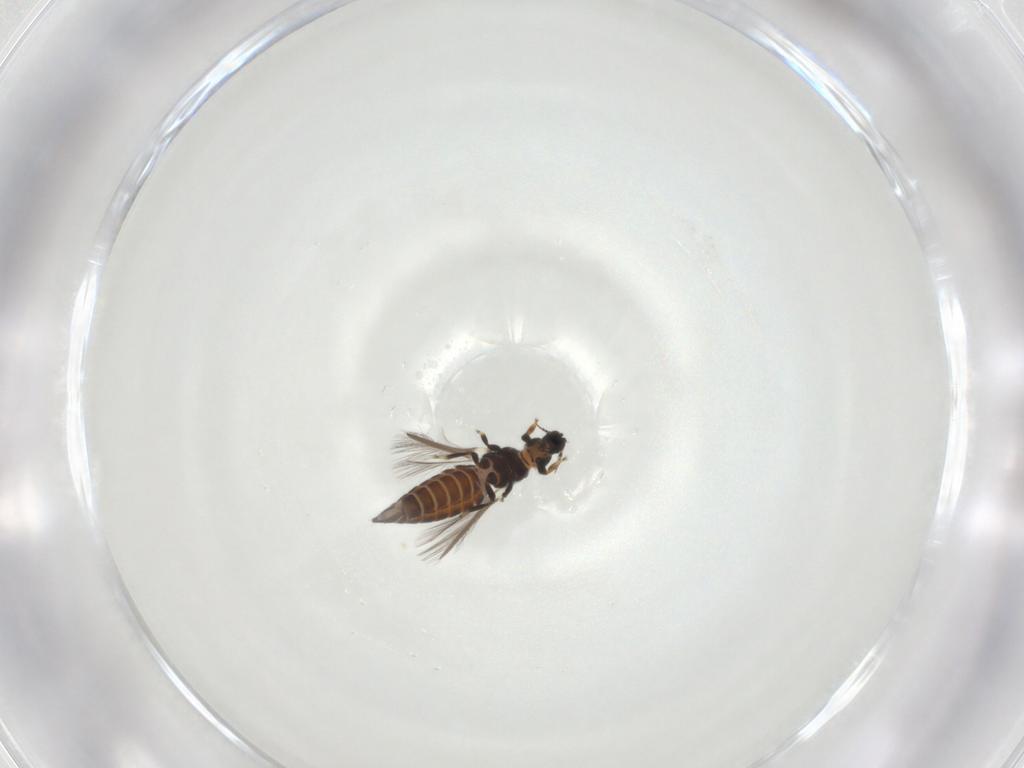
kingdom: Animalia
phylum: Arthropoda
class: Insecta
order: Thysanoptera
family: Heterothripidae
